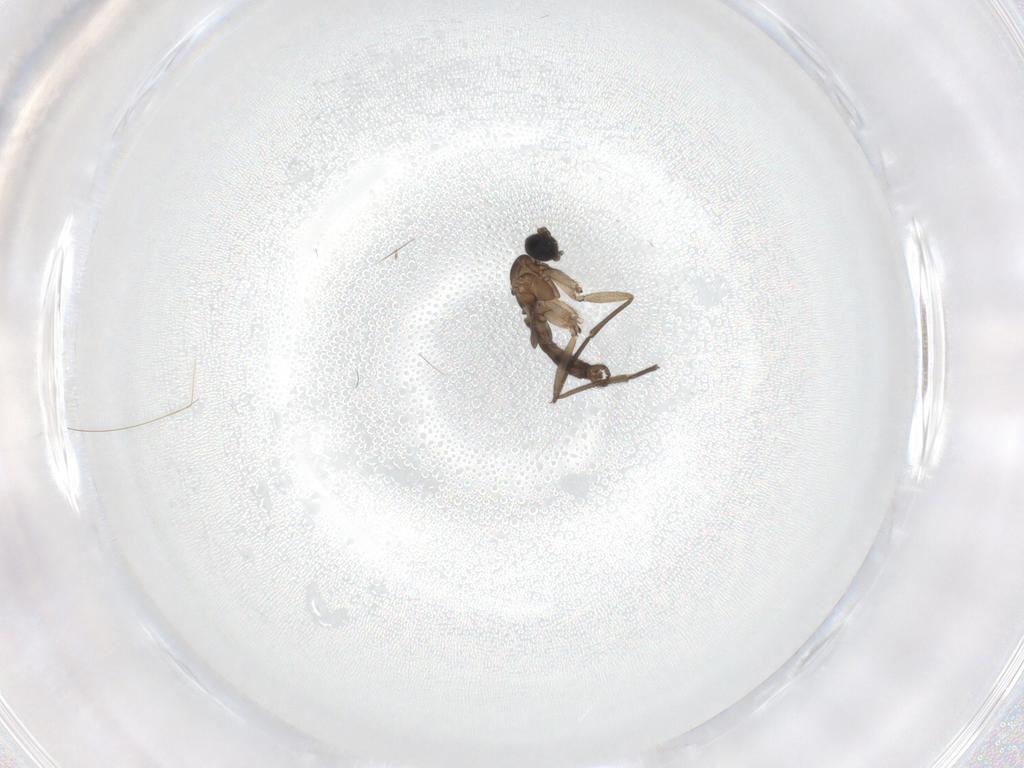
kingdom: Animalia
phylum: Arthropoda
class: Insecta
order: Diptera
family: Sciaridae
